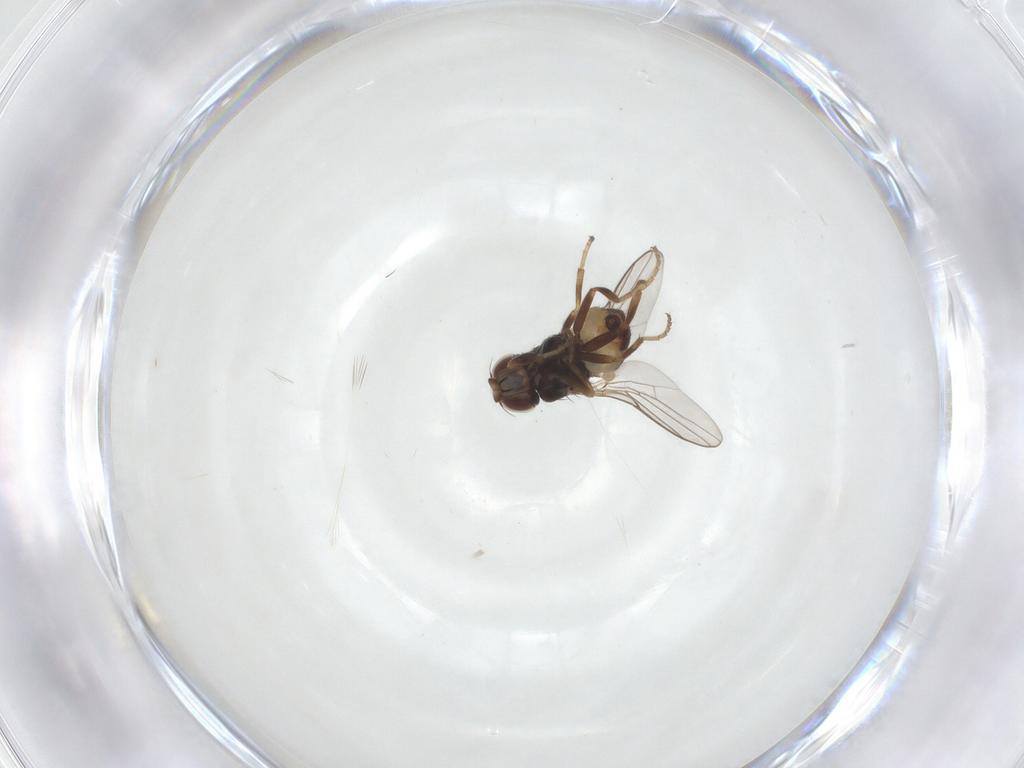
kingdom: Animalia
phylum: Arthropoda
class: Insecta
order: Diptera
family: Chloropidae
